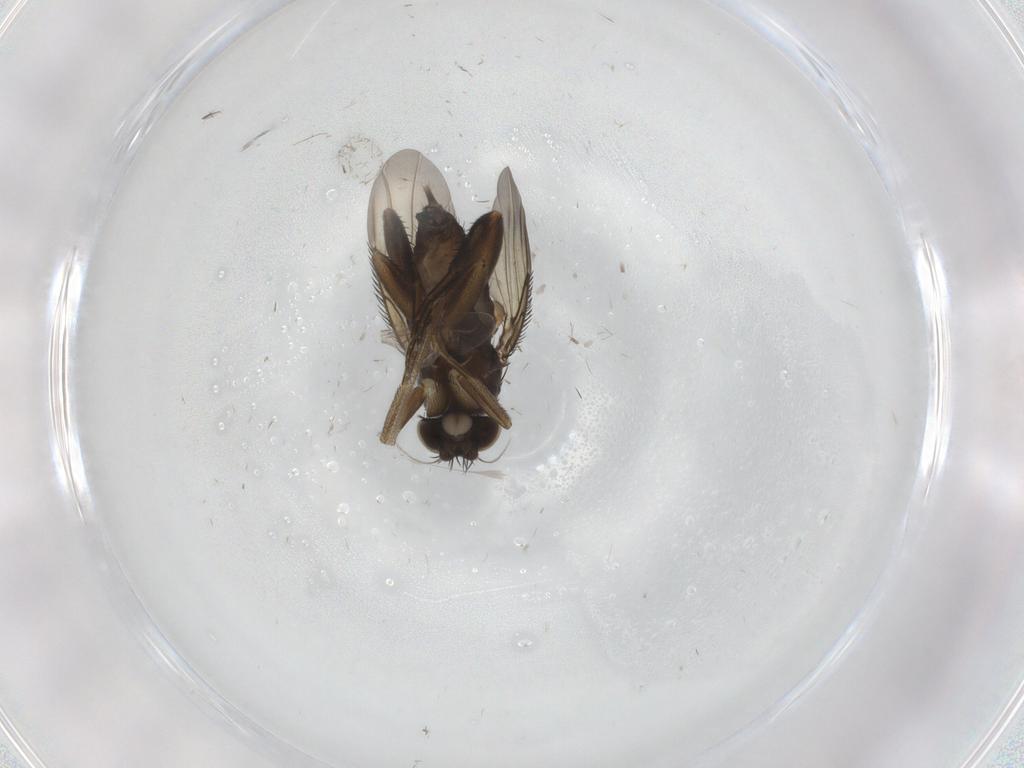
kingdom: Animalia
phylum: Arthropoda
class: Insecta
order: Diptera
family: Phoridae
